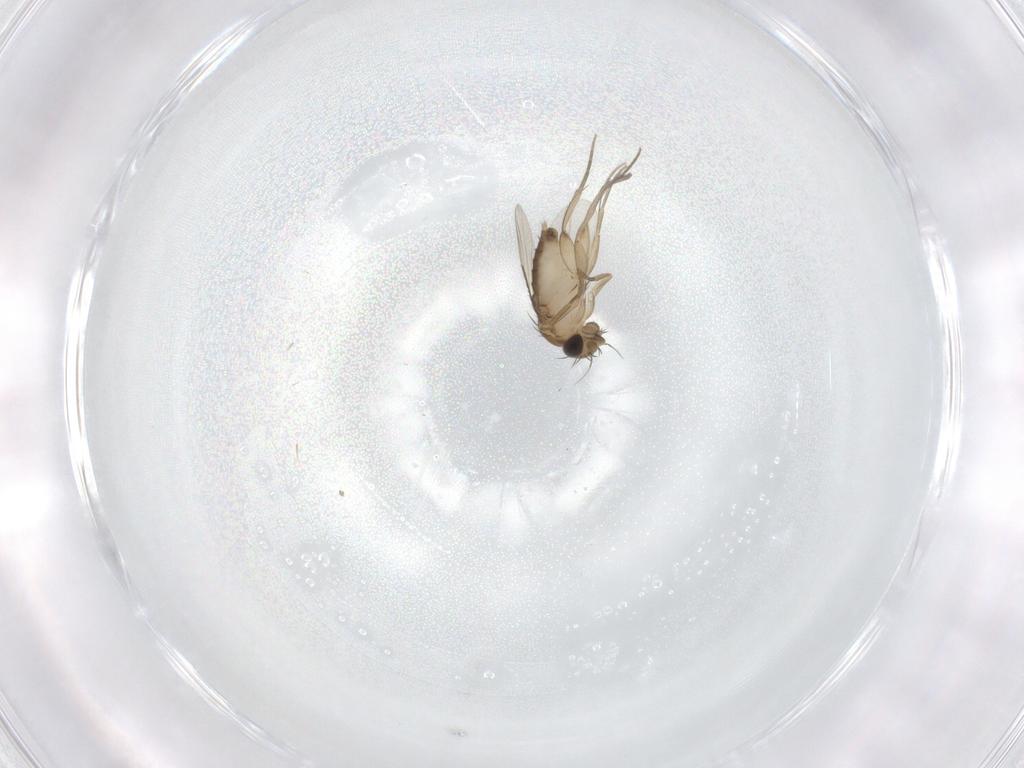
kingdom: Animalia
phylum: Arthropoda
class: Insecta
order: Diptera
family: Phoridae
